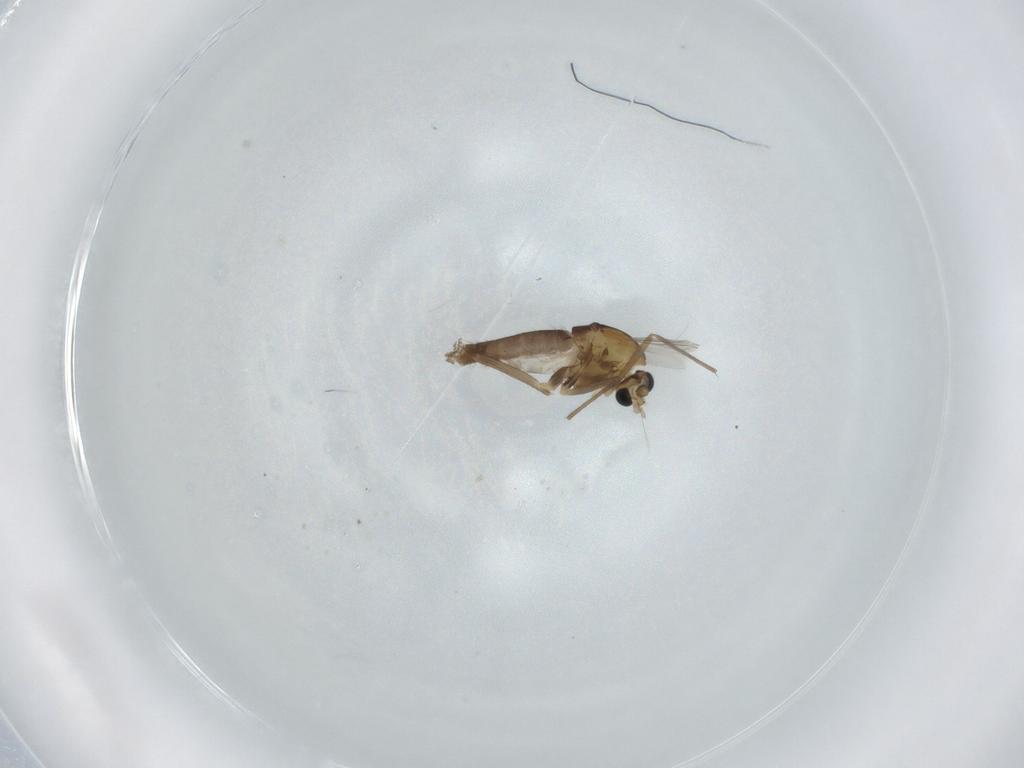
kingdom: Animalia
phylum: Arthropoda
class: Insecta
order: Diptera
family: Chironomidae
